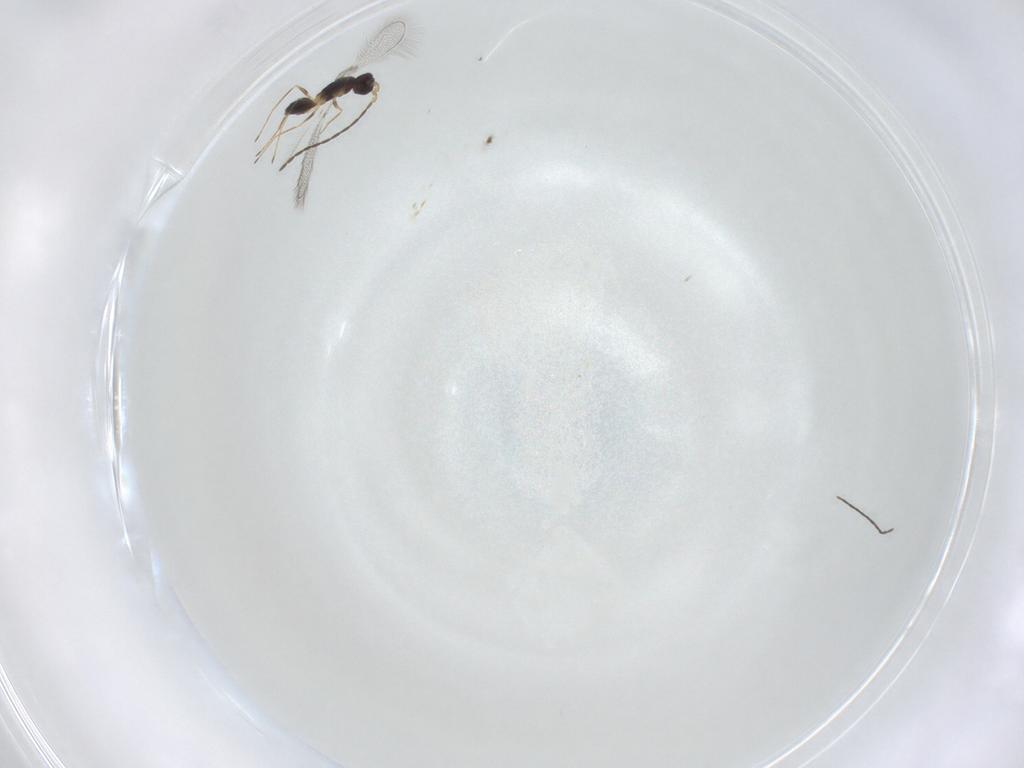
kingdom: Animalia
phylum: Arthropoda
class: Insecta
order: Hymenoptera
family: Mymaridae
